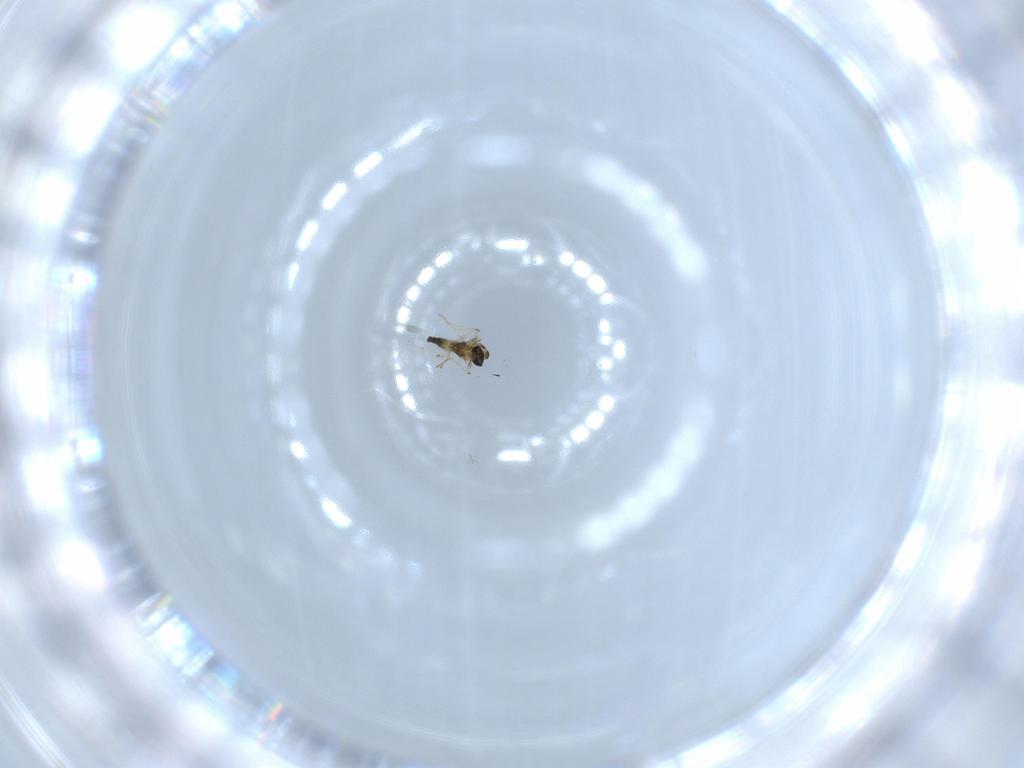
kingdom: Animalia
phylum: Arthropoda
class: Insecta
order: Diptera
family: Chironomidae
